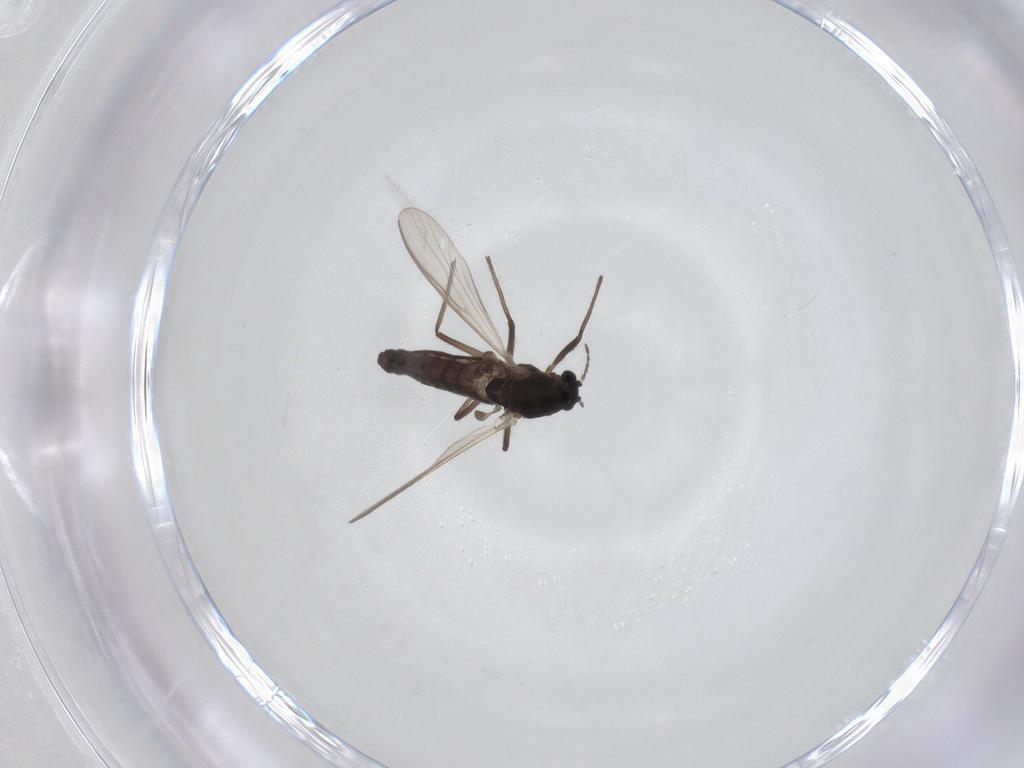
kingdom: Animalia
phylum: Arthropoda
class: Insecta
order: Diptera
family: Chironomidae
